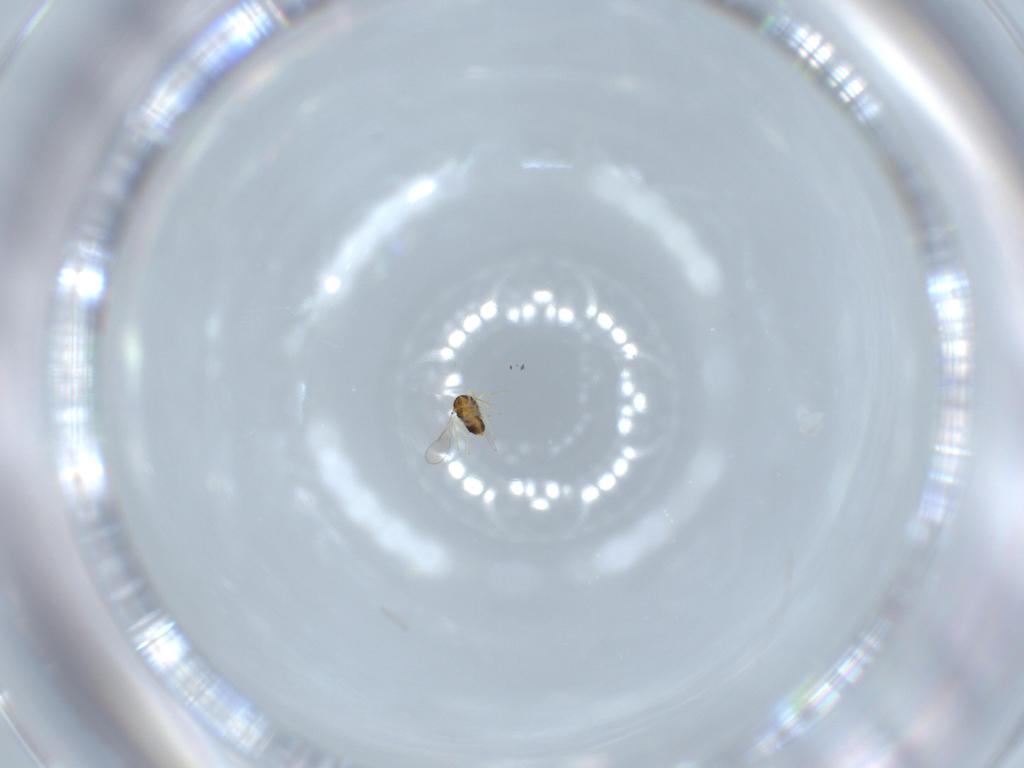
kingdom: Animalia
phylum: Arthropoda
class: Insecta
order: Hymenoptera
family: Aphelinidae
